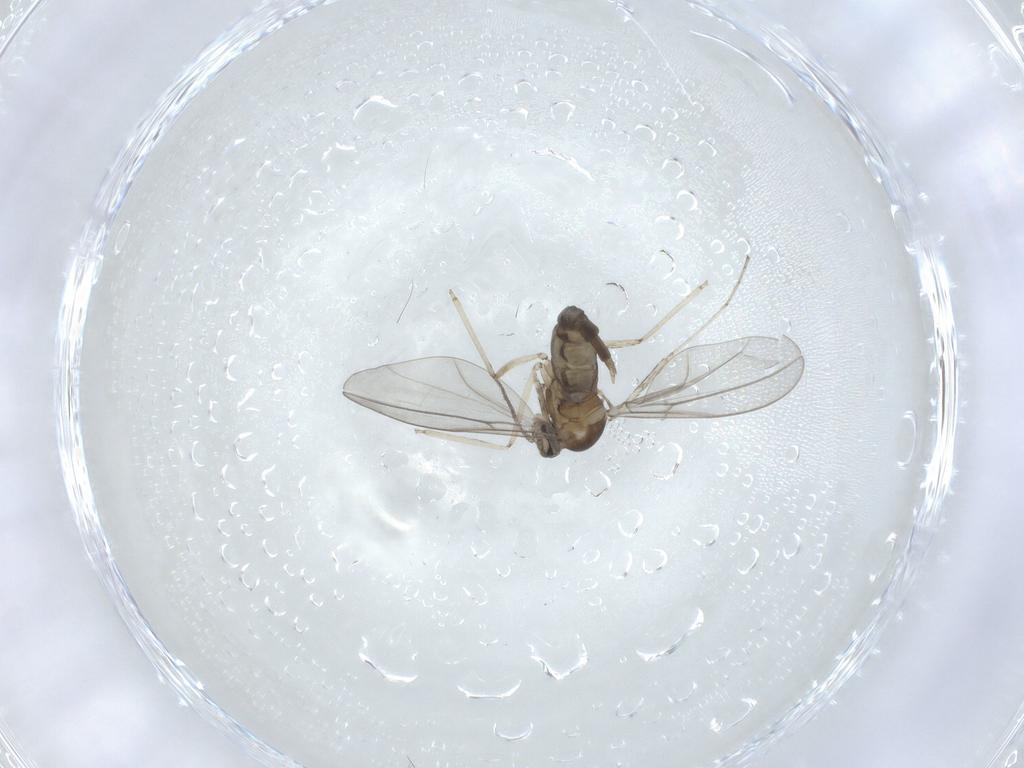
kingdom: Animalia
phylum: Arthropoda
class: Insecta
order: Diptera
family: Cecidomyiidae
